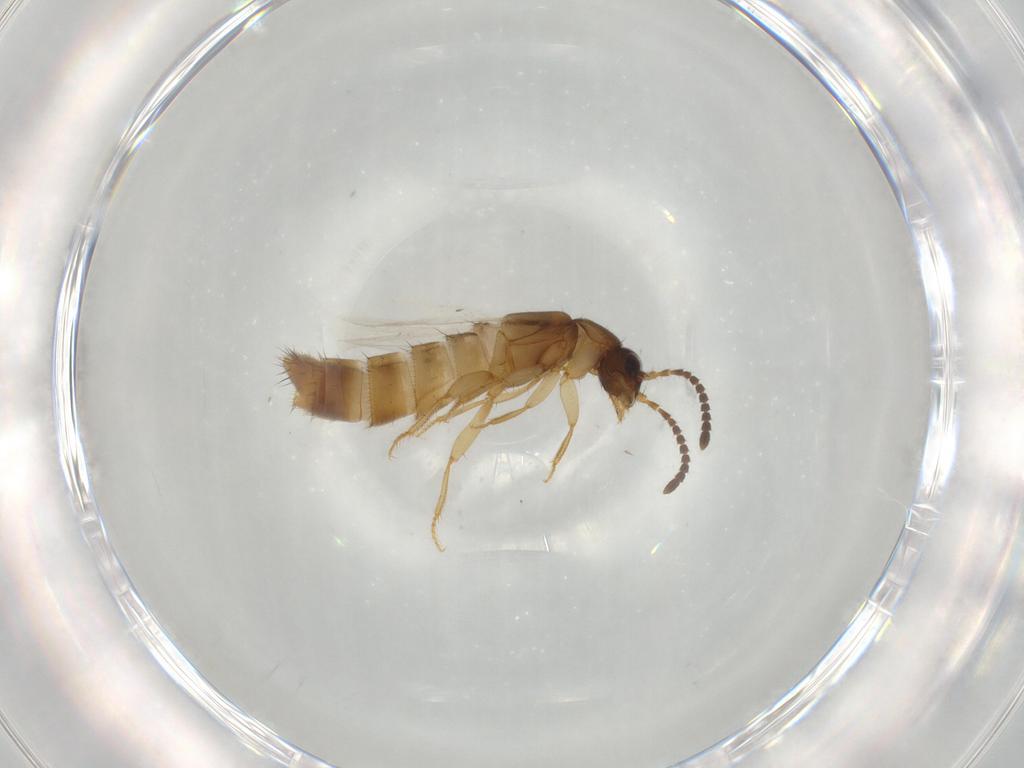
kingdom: Animalia
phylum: Arthropoda
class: Insecta
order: Coleoptera
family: Staphylinidae
